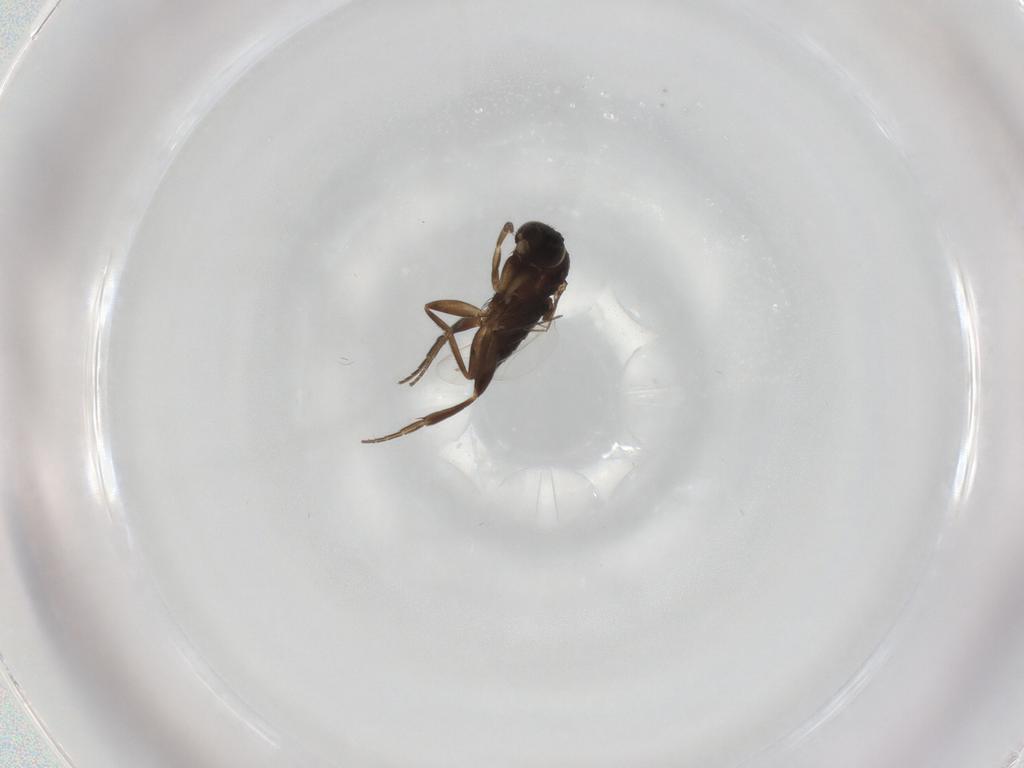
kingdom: Animalia
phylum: Arthropoda
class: Insecta
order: Diptera
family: Phoridae
